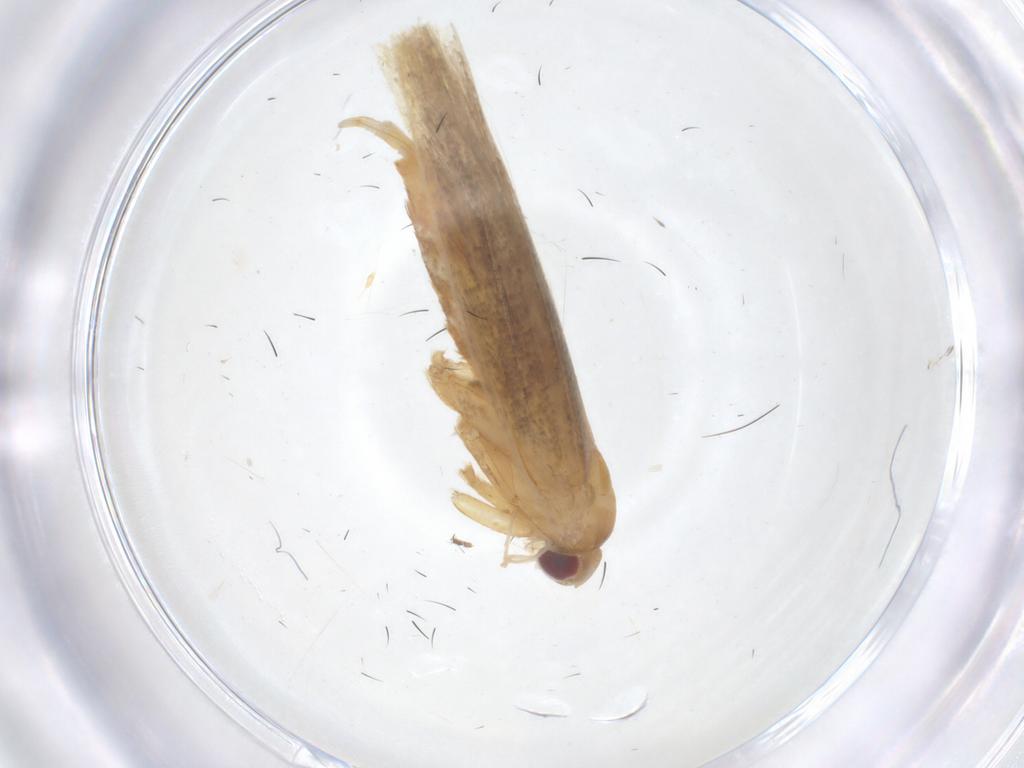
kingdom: Animalia
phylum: Arthropoda
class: Insecta
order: Lepidoptera
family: Cosmopterigidae
